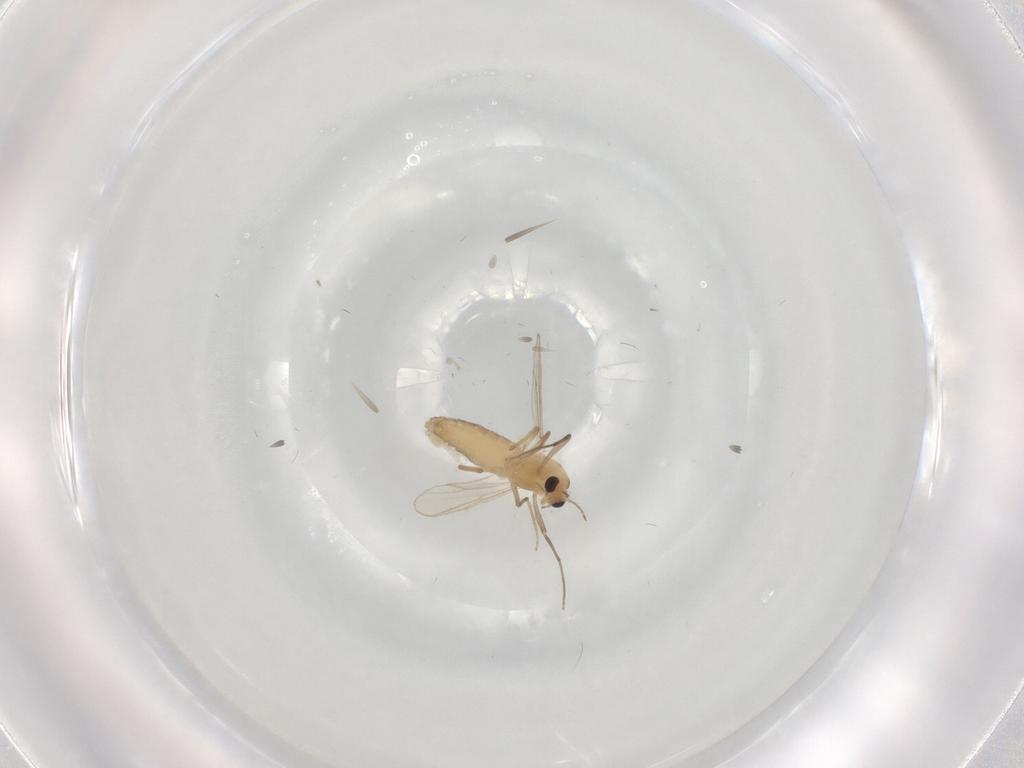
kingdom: Animalia
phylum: Arthropoda
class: Insecta
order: Diptera
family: Chironomidae
